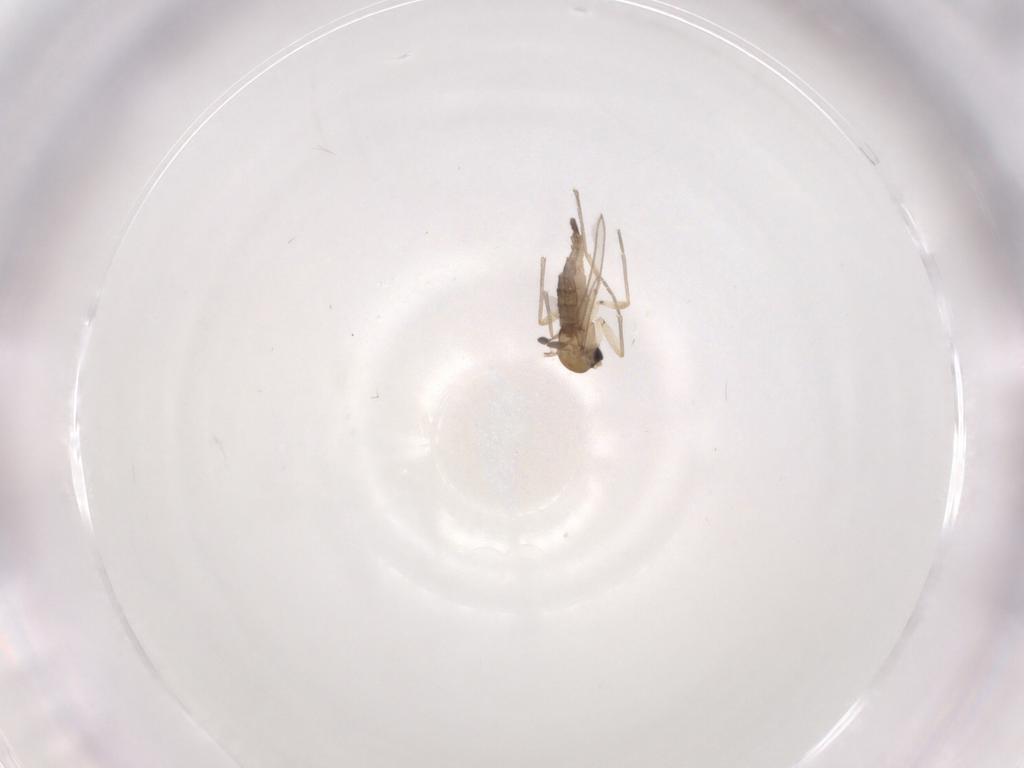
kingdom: Animalia
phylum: Arthropoda
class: Insecta
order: Diptera
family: Sciaridae
